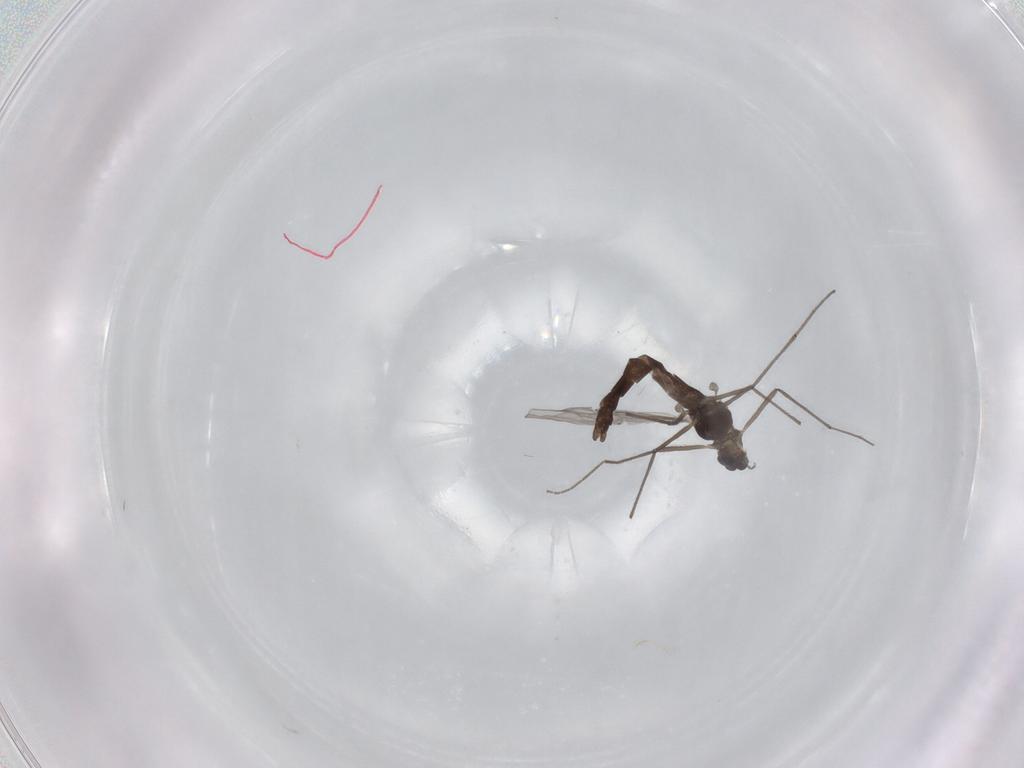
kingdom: Animalia
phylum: Arthropoda
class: Insecta
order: Diptera
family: Chironomidae
